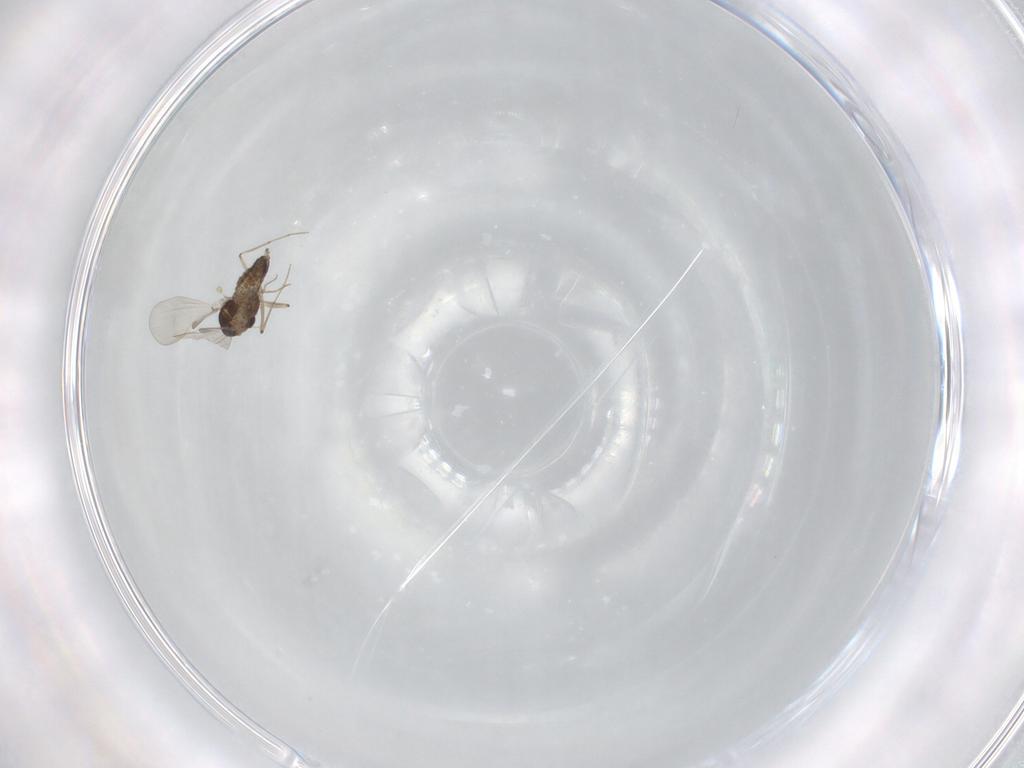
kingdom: Animalia
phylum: Arthropoda
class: Insecta
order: Diptera
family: Chironomidae
